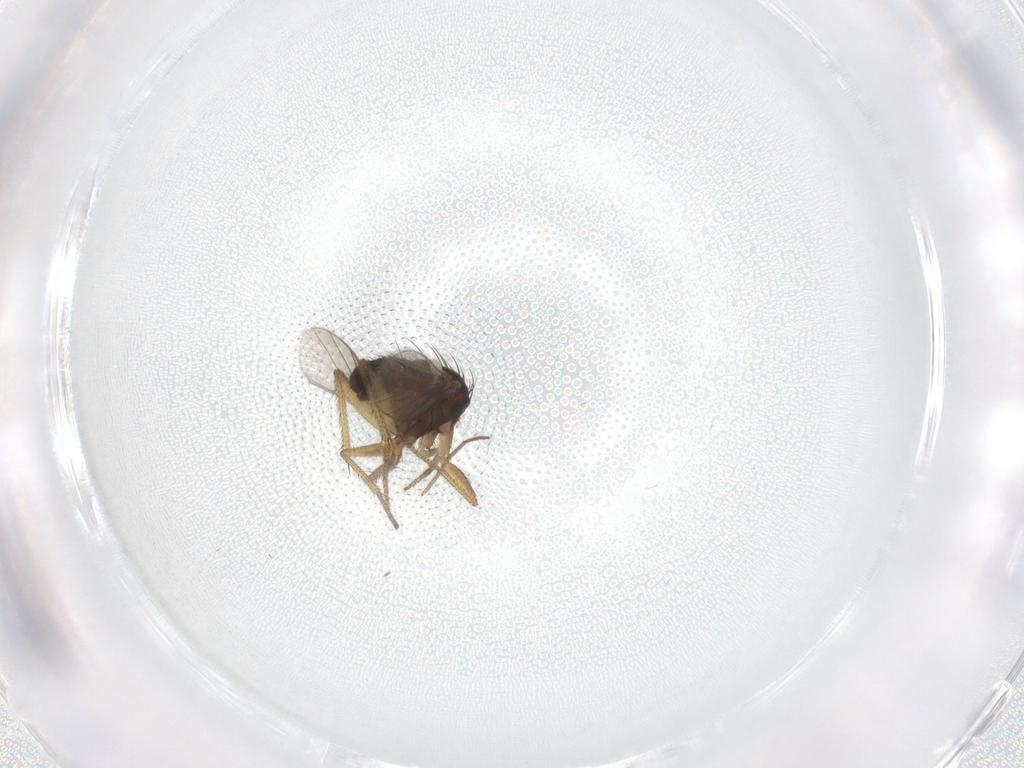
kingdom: Animalia
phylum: Arthropoda
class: Insecta
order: Diptera
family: Dolichopodidae
